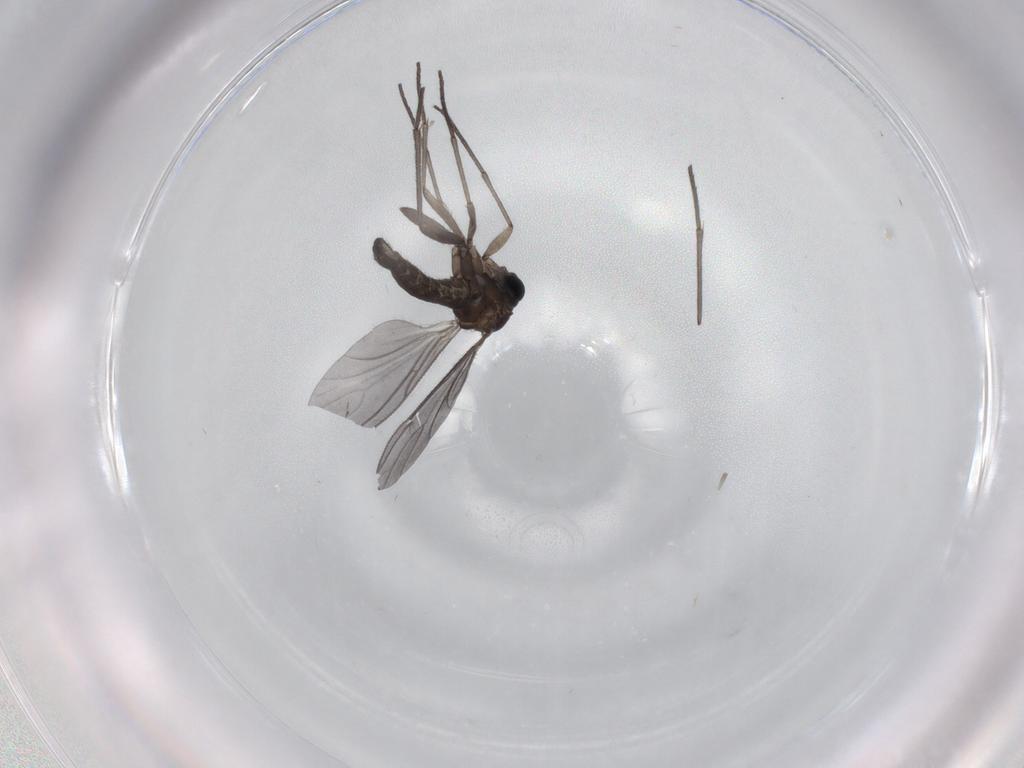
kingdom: Animalia
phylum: Arthropoda
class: Insecta
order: Diptera
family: Sciaridae
